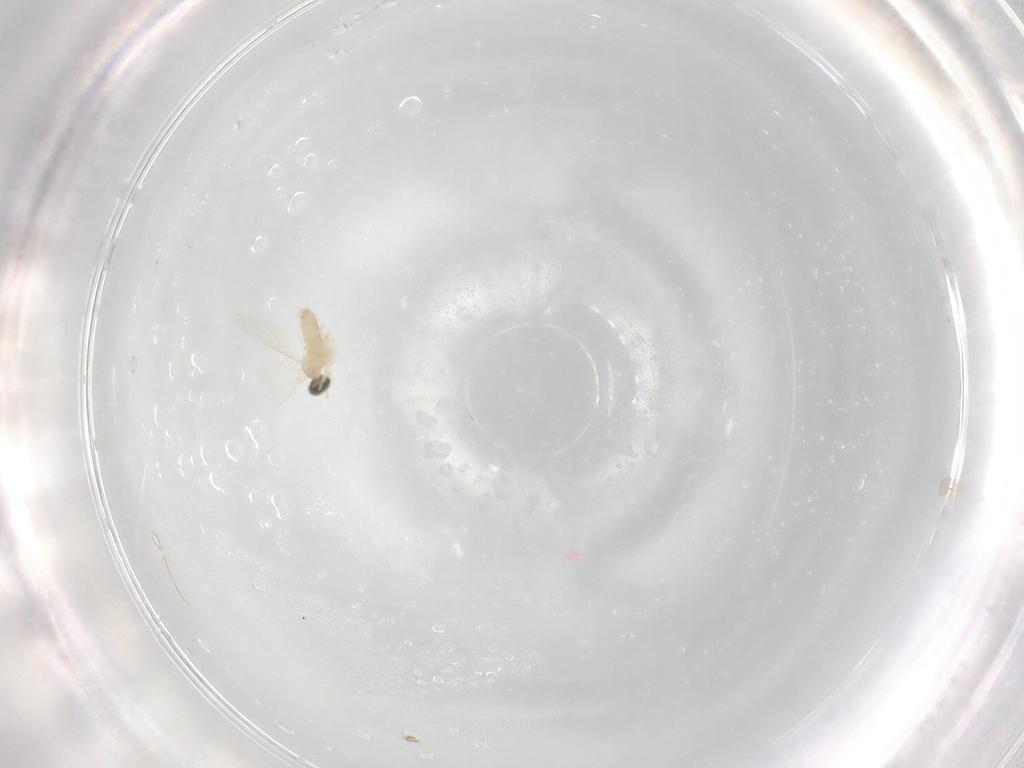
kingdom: Animalia
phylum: Arthropoda
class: Insecta
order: Diptera
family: Cecidomyiidae
